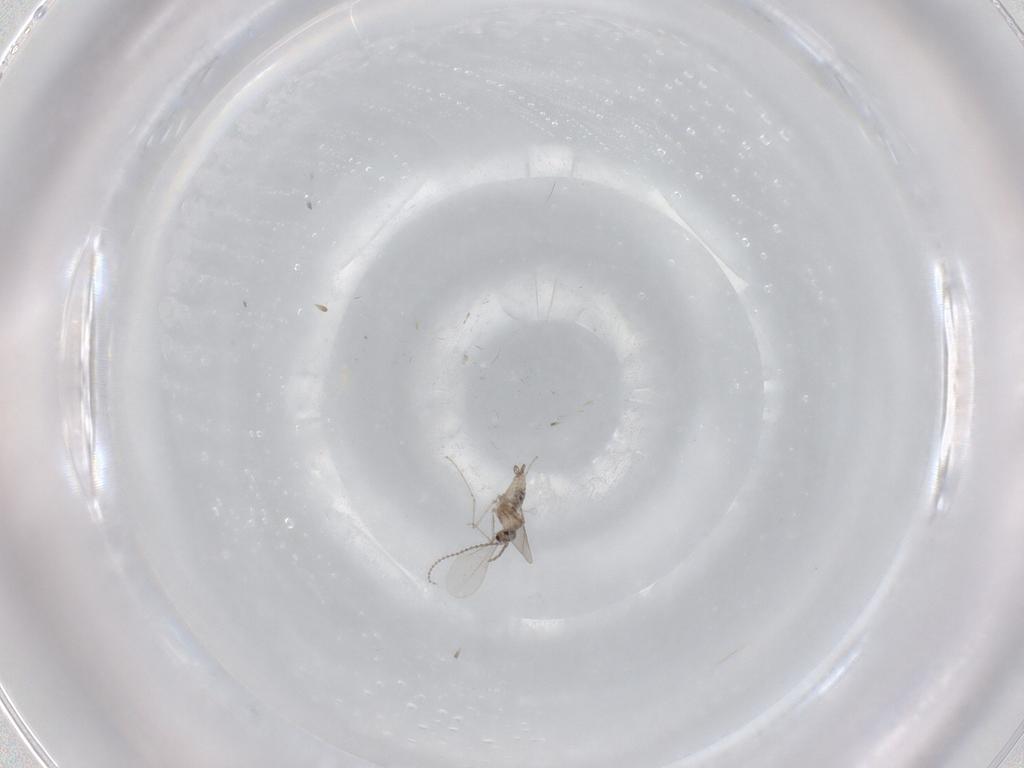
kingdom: Animalia
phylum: Arthropoda
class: Insecta
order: Diptera
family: Cecidomyiidae
